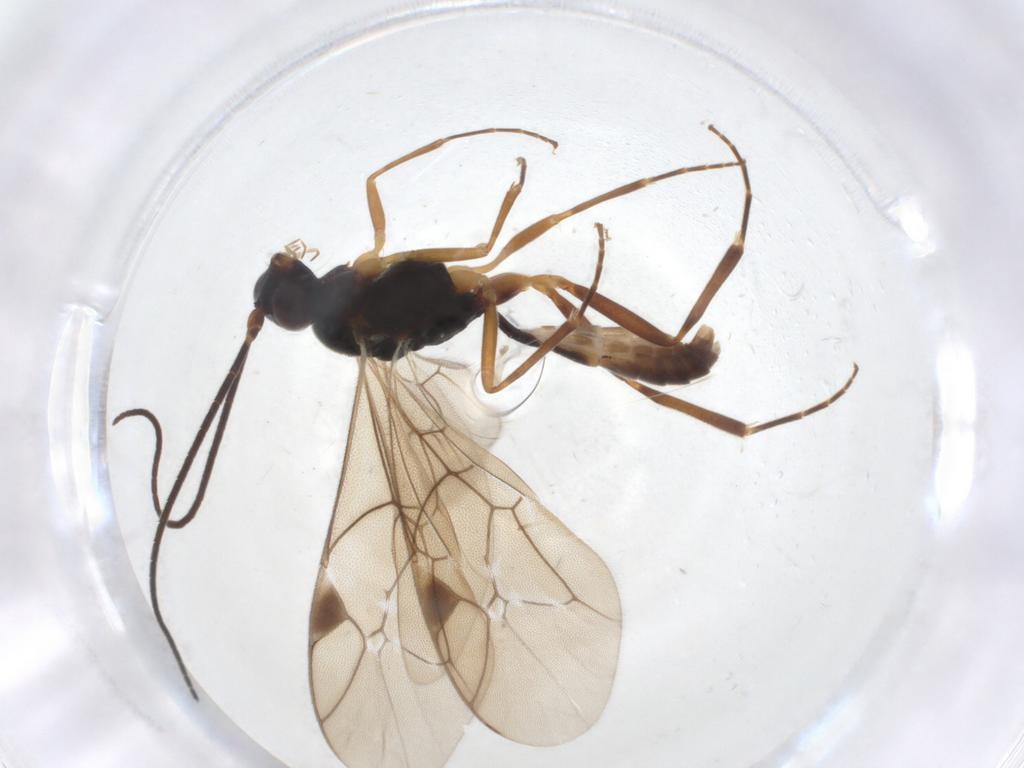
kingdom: Animalia
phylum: Arthropoda
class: Insecta
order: Hymenoptera
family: Ichneumonidae
